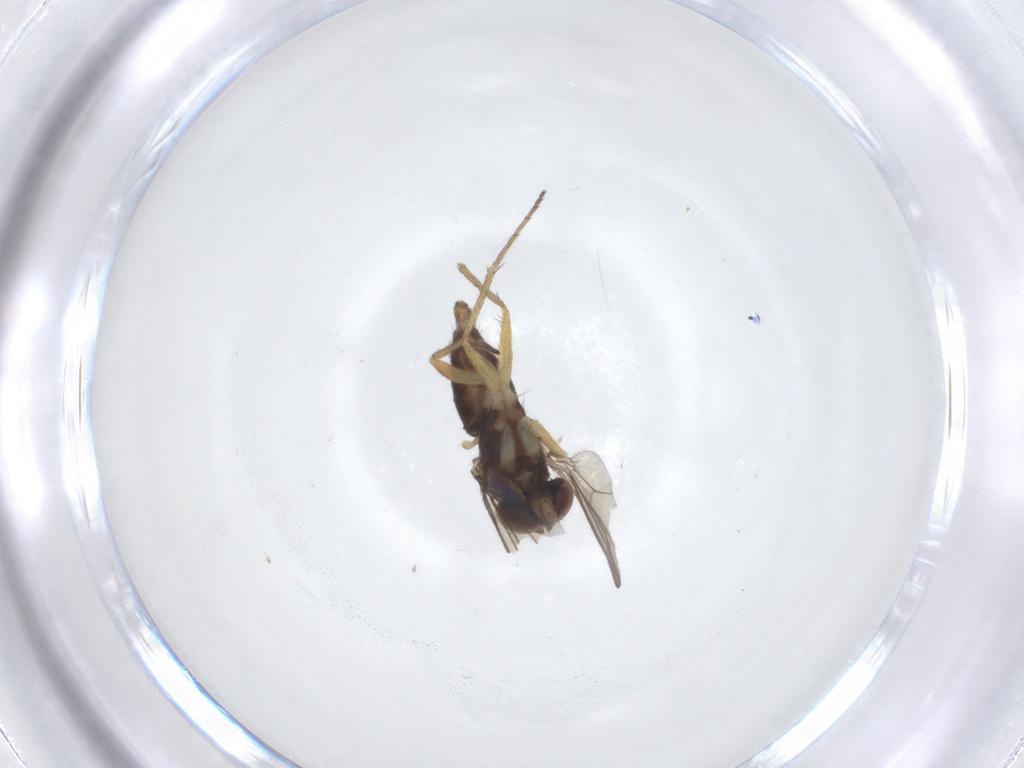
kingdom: Animalia
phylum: Arthropoda
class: Insecta
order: Diptera
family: Dolichopodidae
